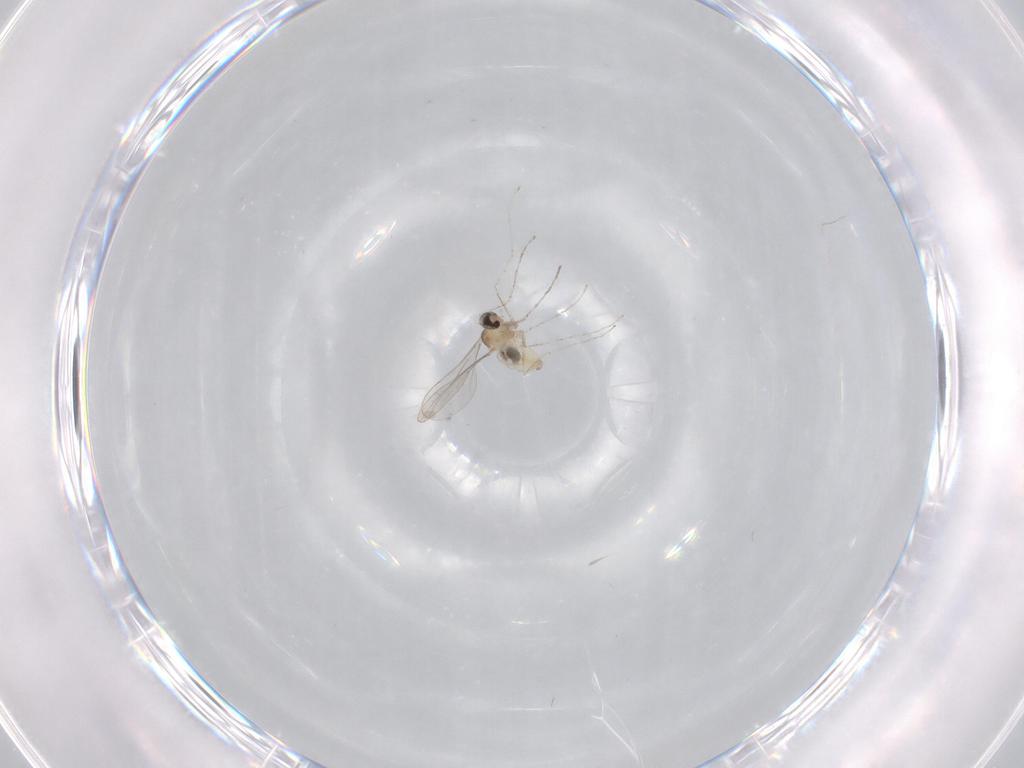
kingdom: Animalia
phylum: Arthropoda
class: Insecta
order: Diptera
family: Cecidomyiidae
